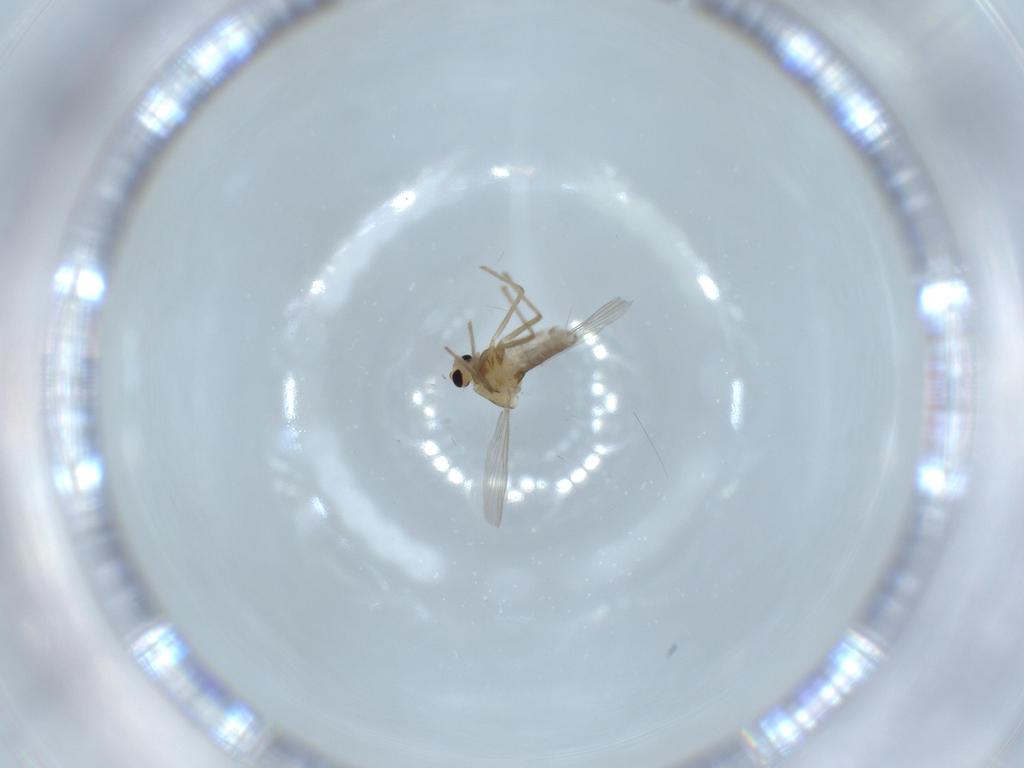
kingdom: Animalia
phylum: Arthropoda
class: Insecta
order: Diptera
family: Chironomidae
